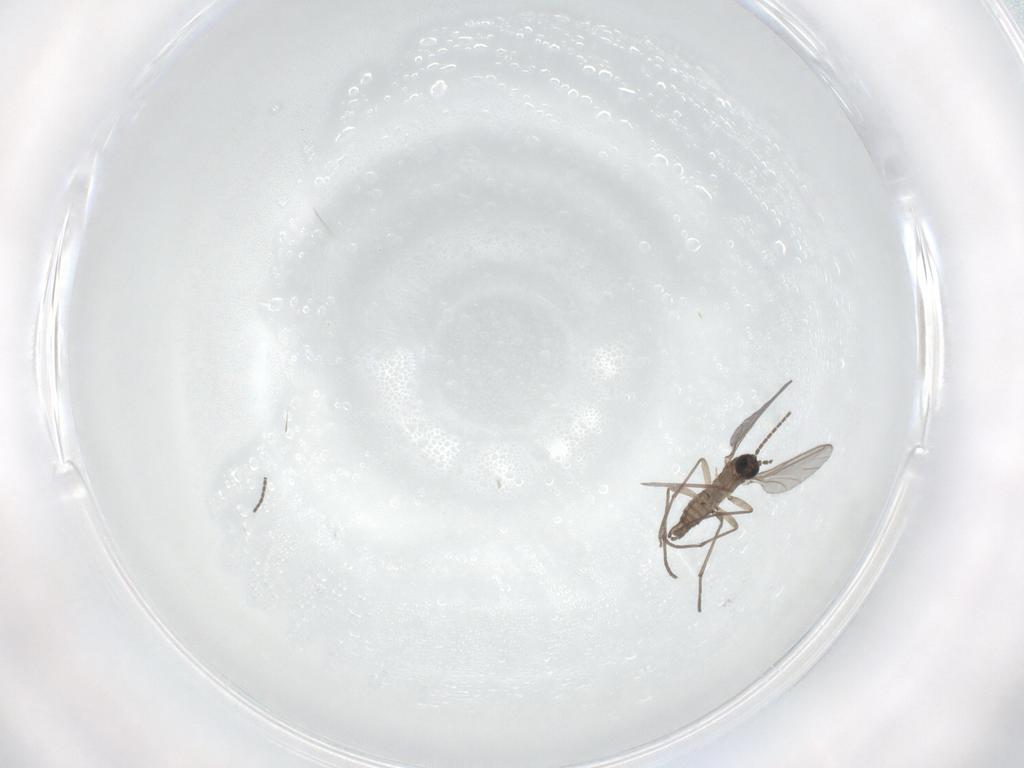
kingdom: Animalia
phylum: Arthropoda
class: Insecta
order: Diptera
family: Sciaridae
